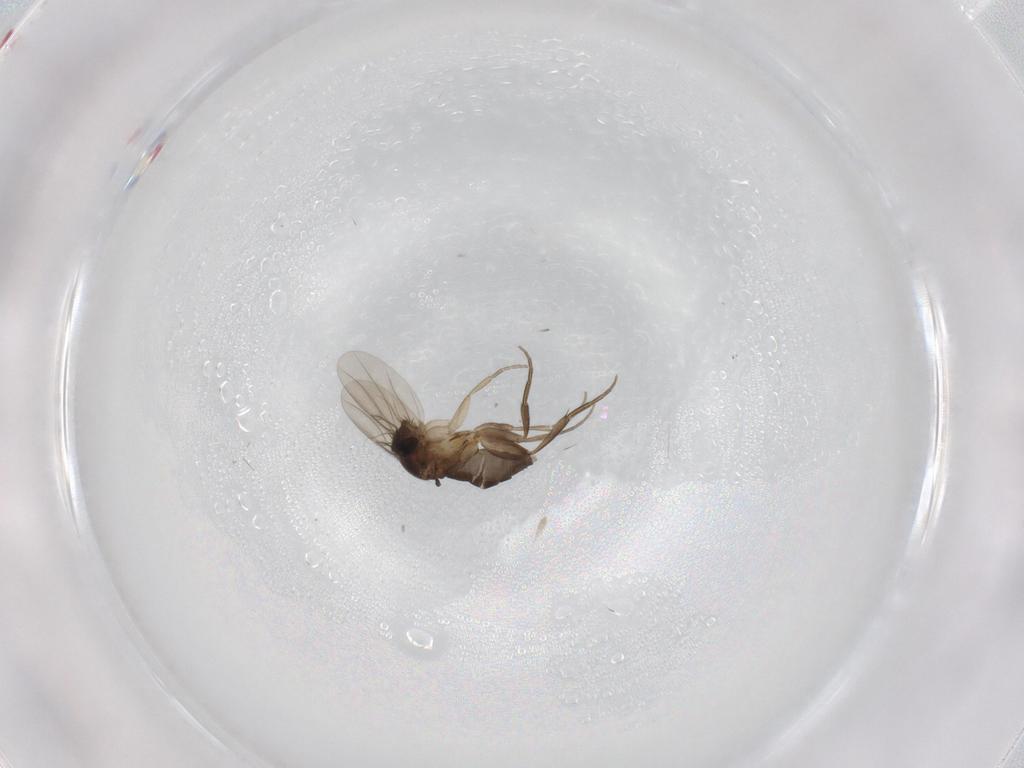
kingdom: Animalia
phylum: Arthropoda
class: Insecta
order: Diptera
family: Phoridae
